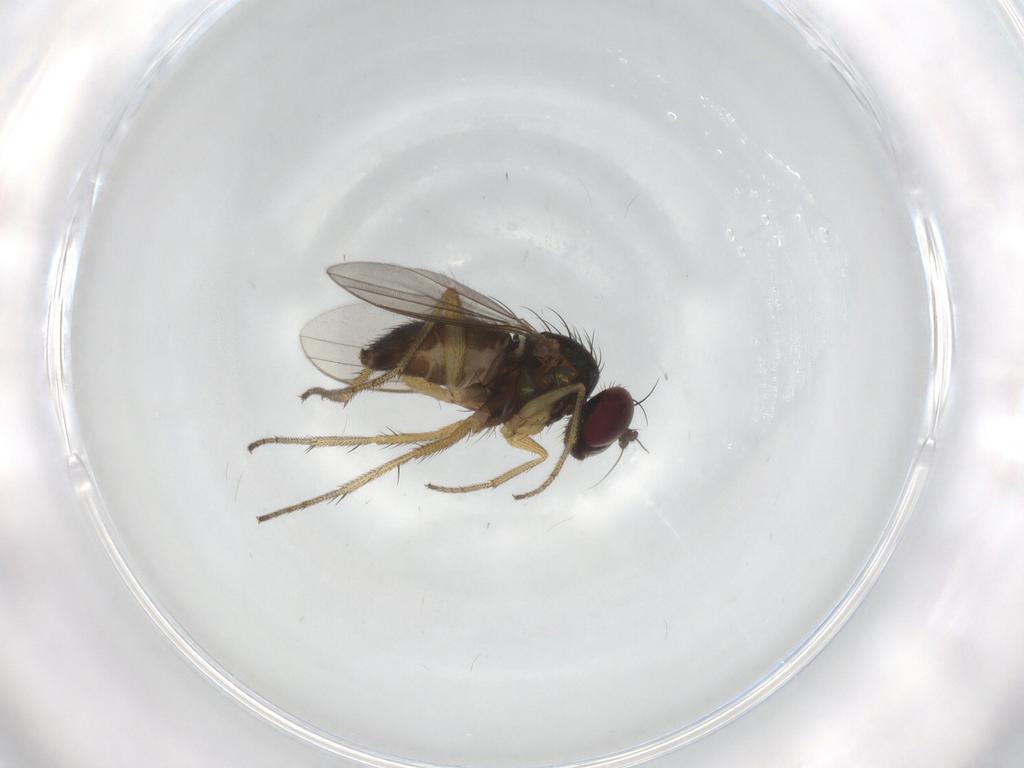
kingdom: Animalia
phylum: Arthropoda
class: Insecta
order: Diptera
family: Chironomidae
